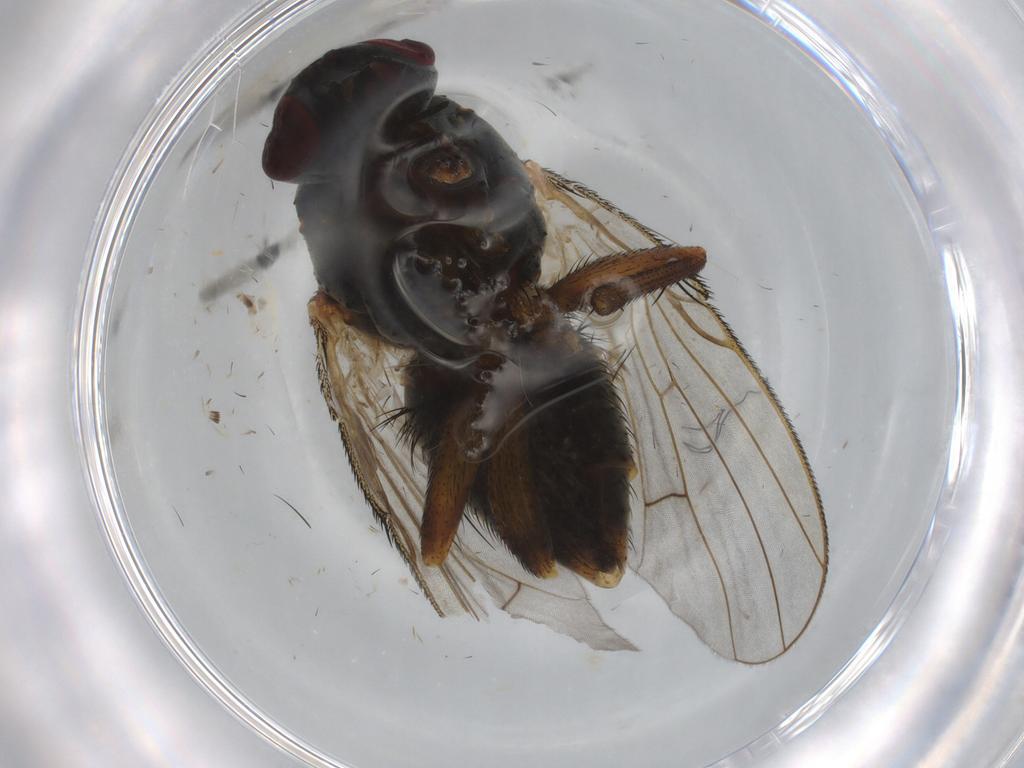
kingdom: Animalia
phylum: Arthropoda
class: Insecta
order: Diptera
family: Muscidae
